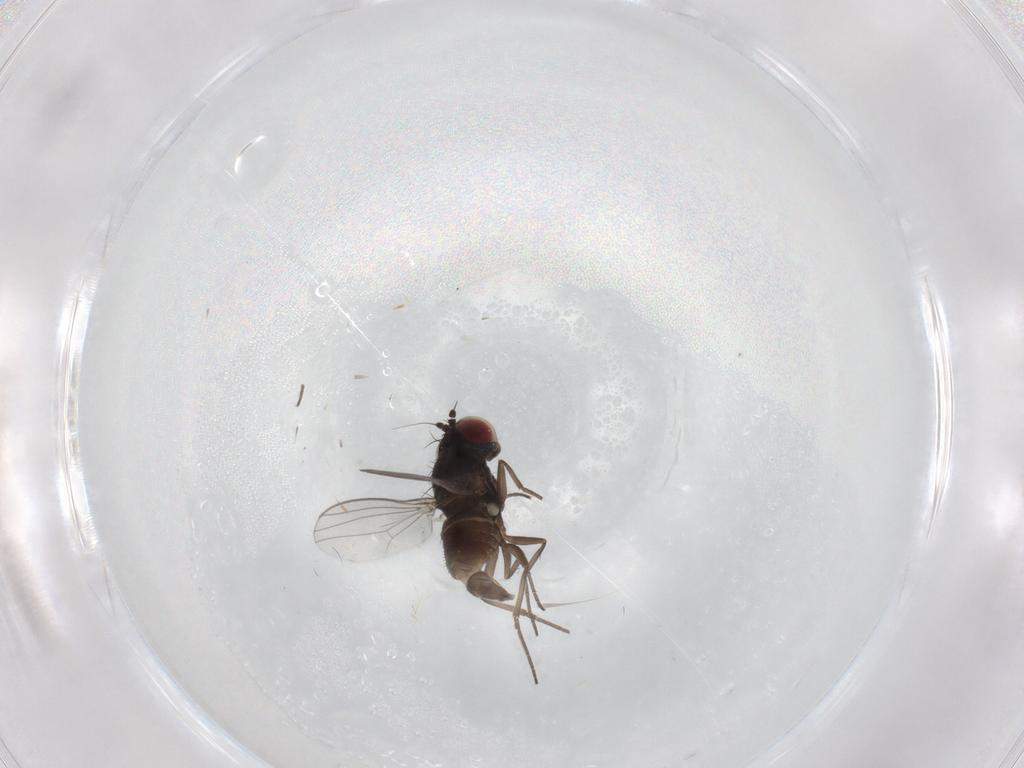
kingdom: Animalia
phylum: Arthropoda
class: Insecta
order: Diptera
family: Dolichopodidae
